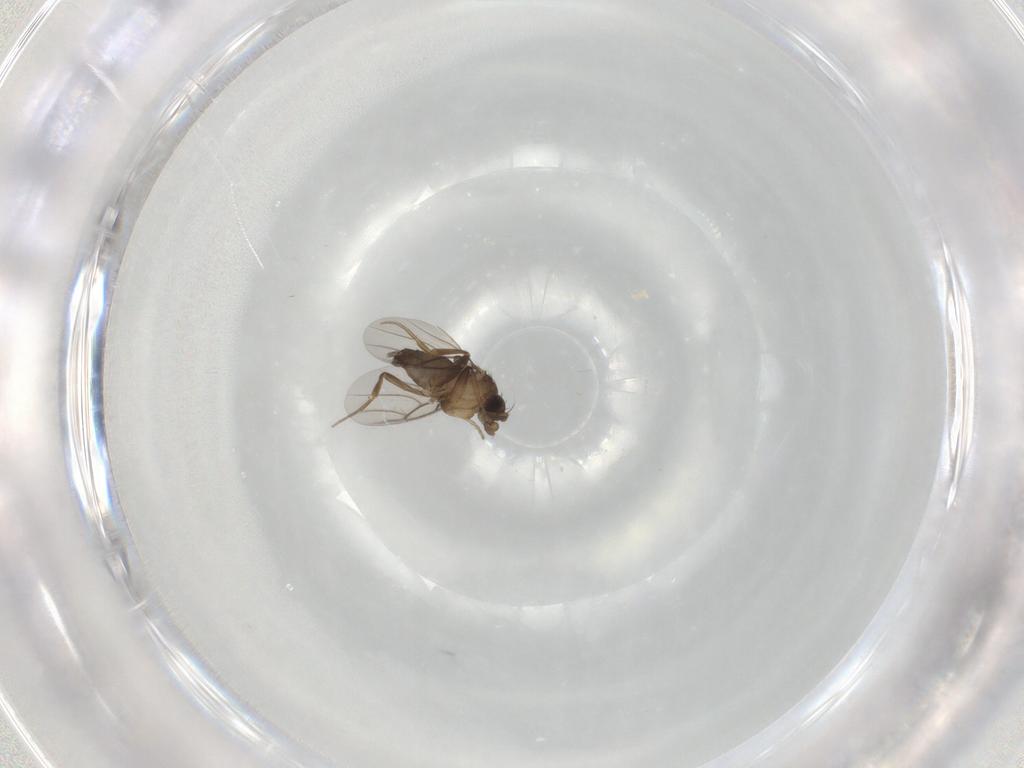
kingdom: Animalia
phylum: Arthropoda
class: Insecta
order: Diptera
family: Phoridae
